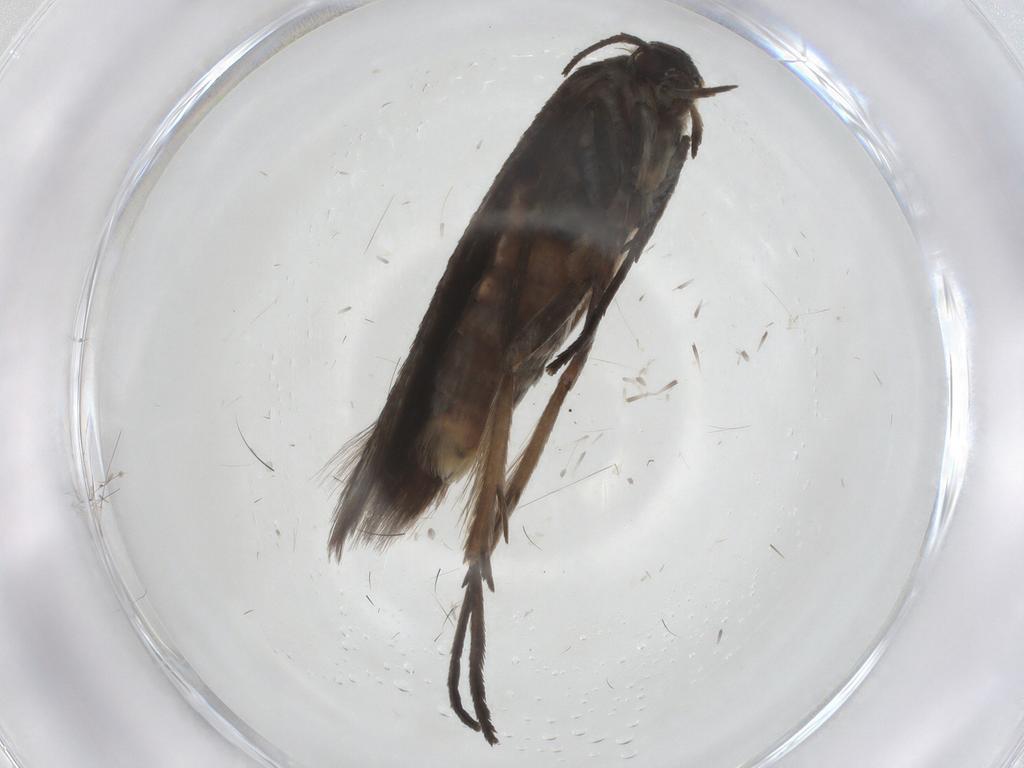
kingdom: Animalia
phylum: Arthropoda
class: Insecta
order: Lepidoptera
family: Scythrididae
